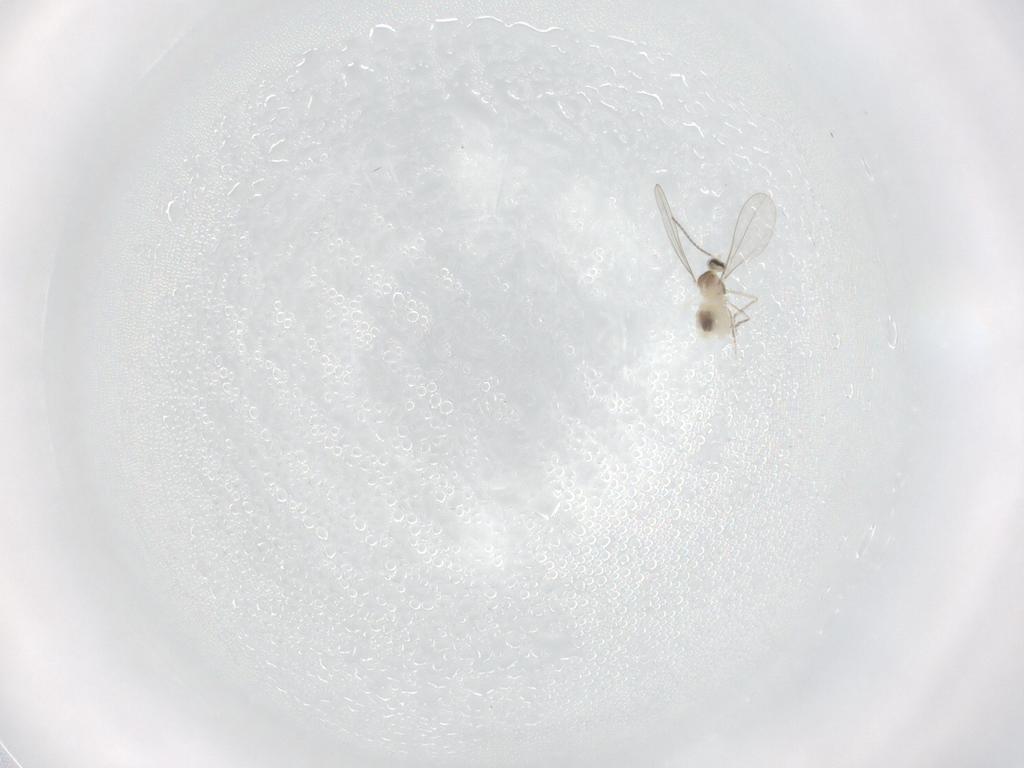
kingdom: Animalia
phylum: Arthropoda
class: Insecta
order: Diptera
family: Cecidomyiidae
